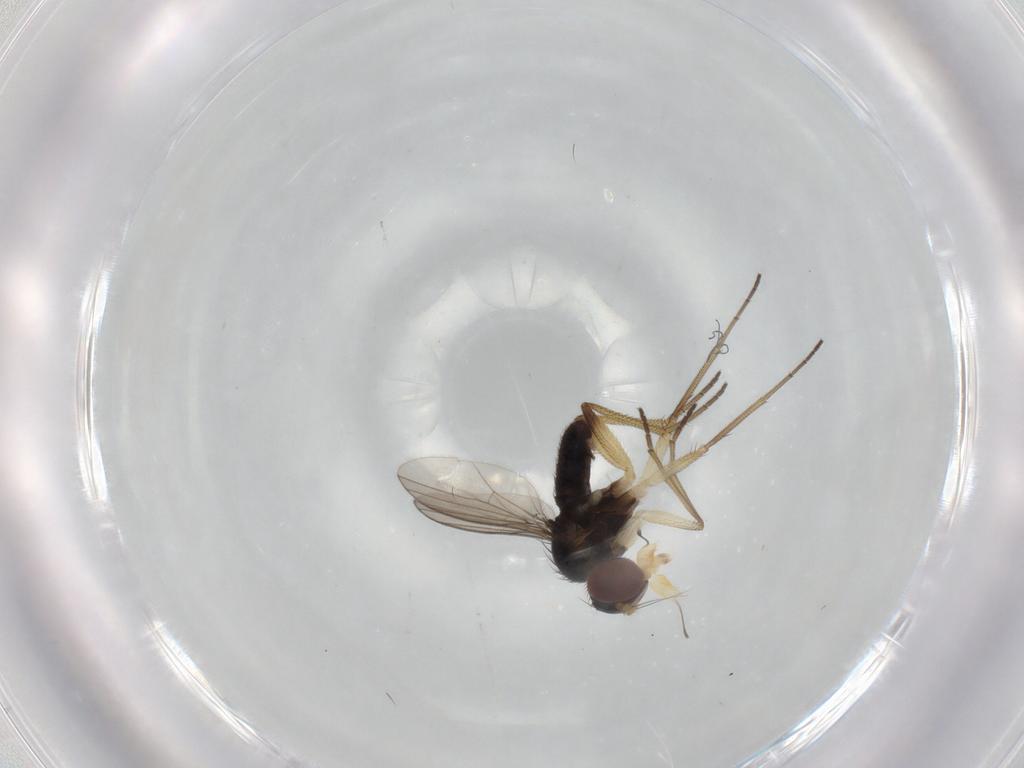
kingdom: Animalia
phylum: Arthropoda
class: Insecta
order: Diptera
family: Dolichopodidae
